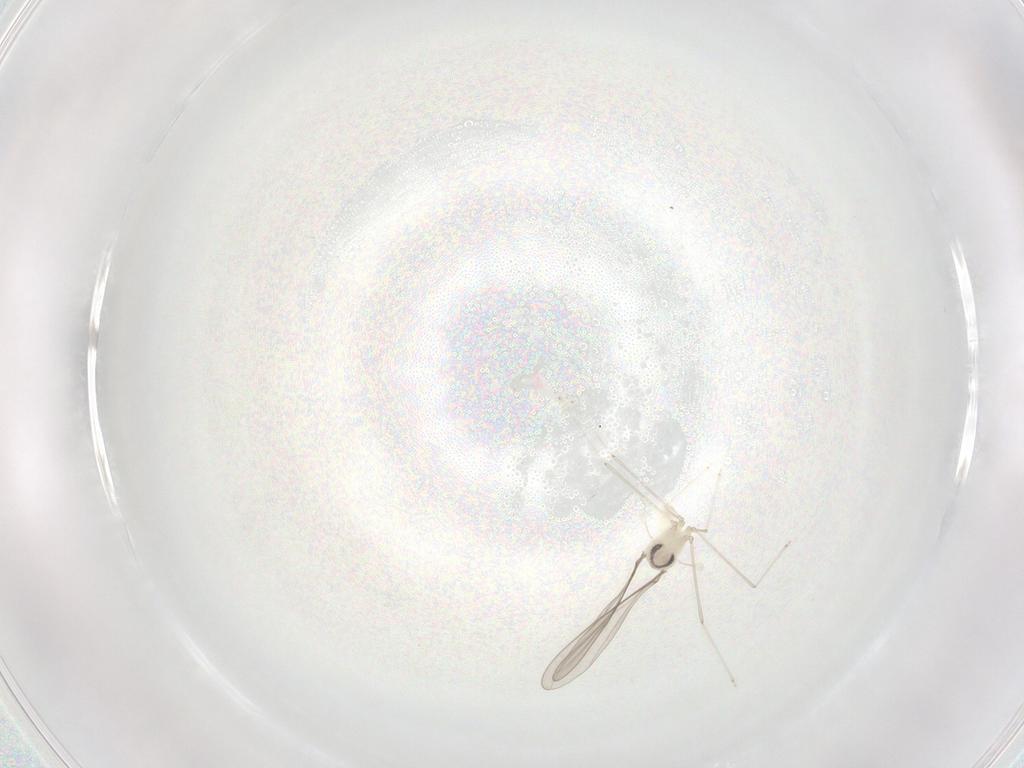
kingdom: Animalia
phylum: Arthropoda
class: Insecta
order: Diptera
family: Cecidomyiidae
